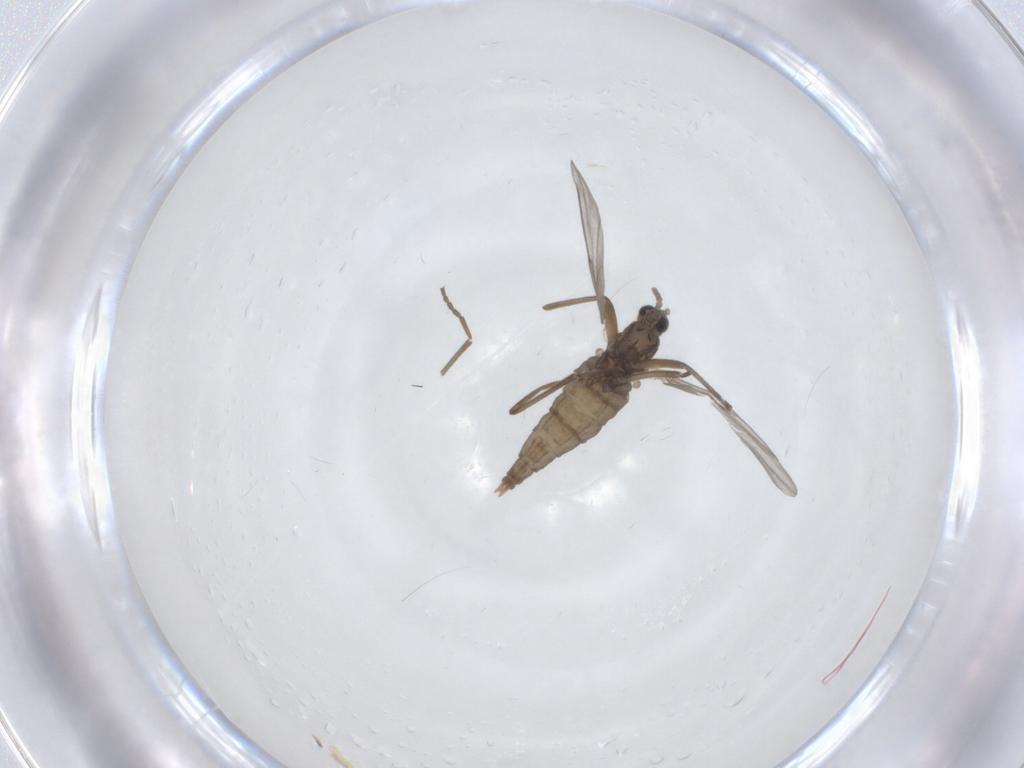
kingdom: Animalia
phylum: Arthropoda
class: Insecta
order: Diptera
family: Cecidomyiidae
